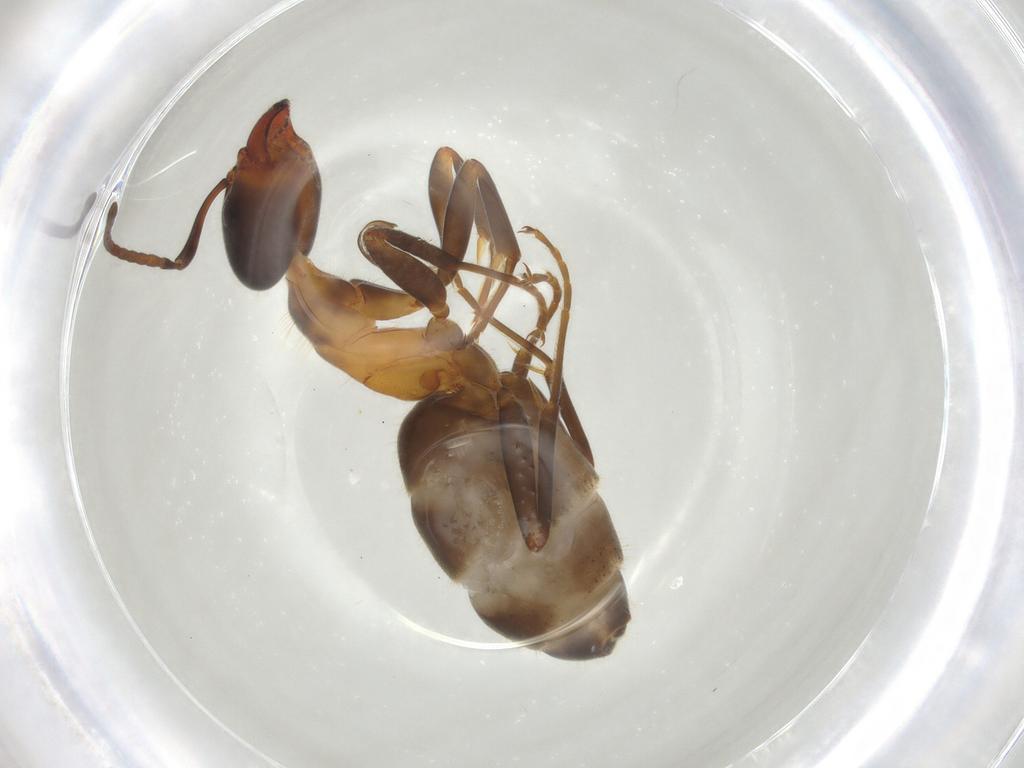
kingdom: Animalia
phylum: Arthropoda
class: Insecta
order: Hymenoptera
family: Formicidae
